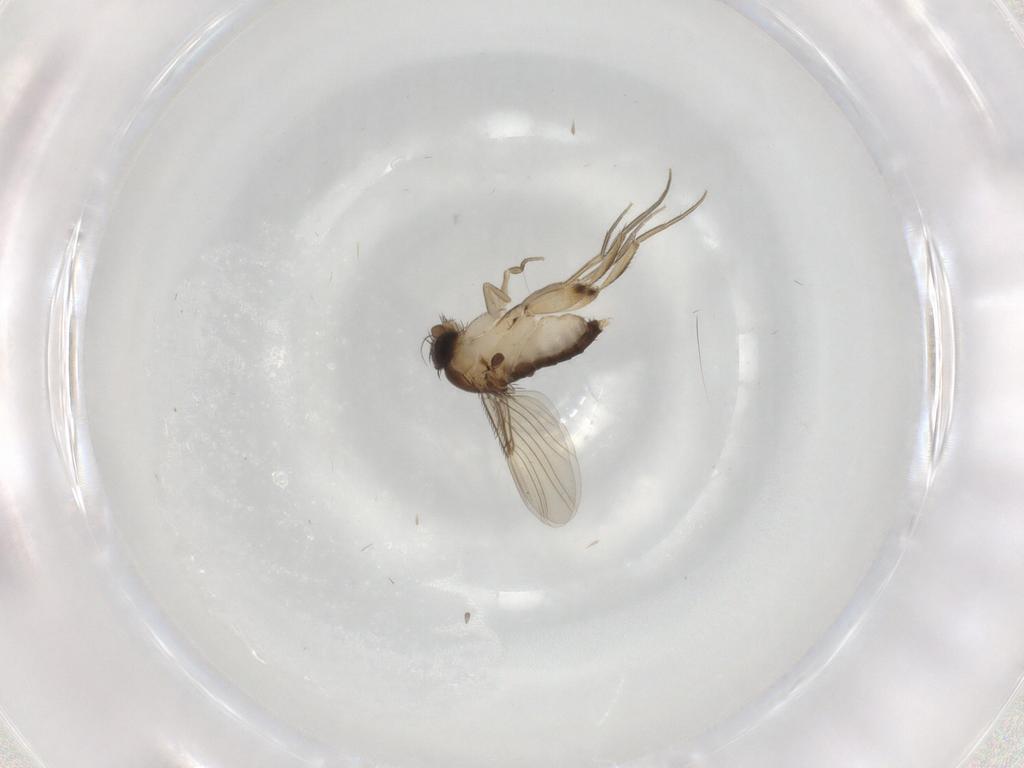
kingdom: Animalia
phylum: Arthropoda
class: Insecta
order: Diptera
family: Phoridae
